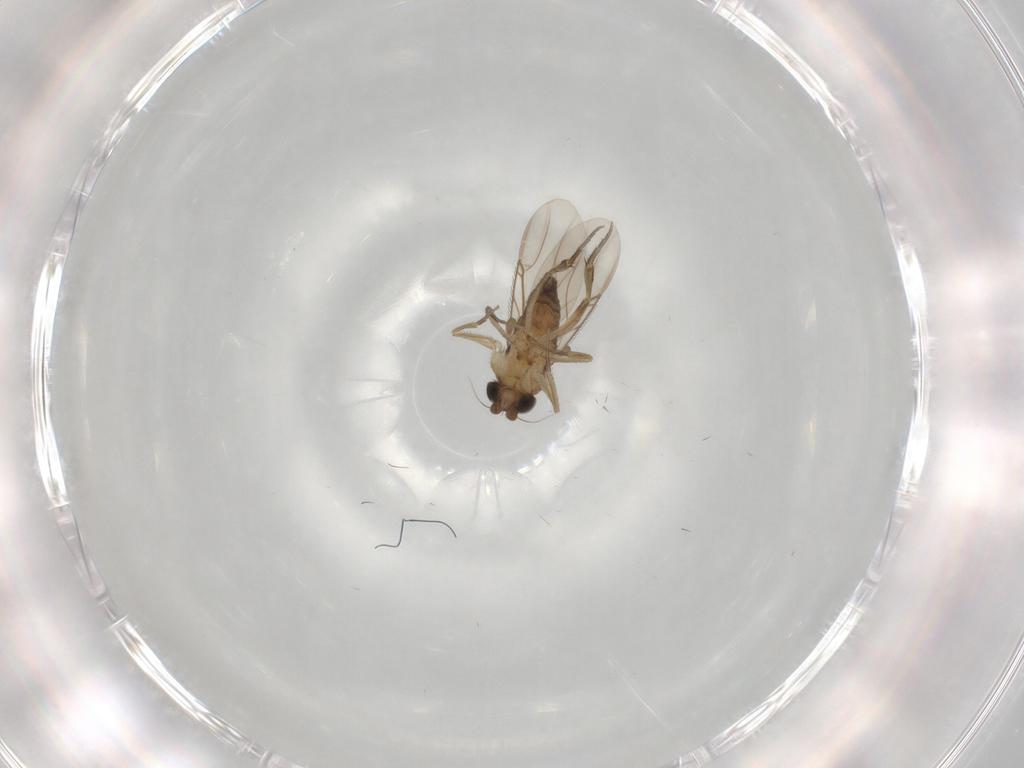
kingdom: Animalia
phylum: Arthropoda
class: Insecta
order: Diptera
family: Phoridae
